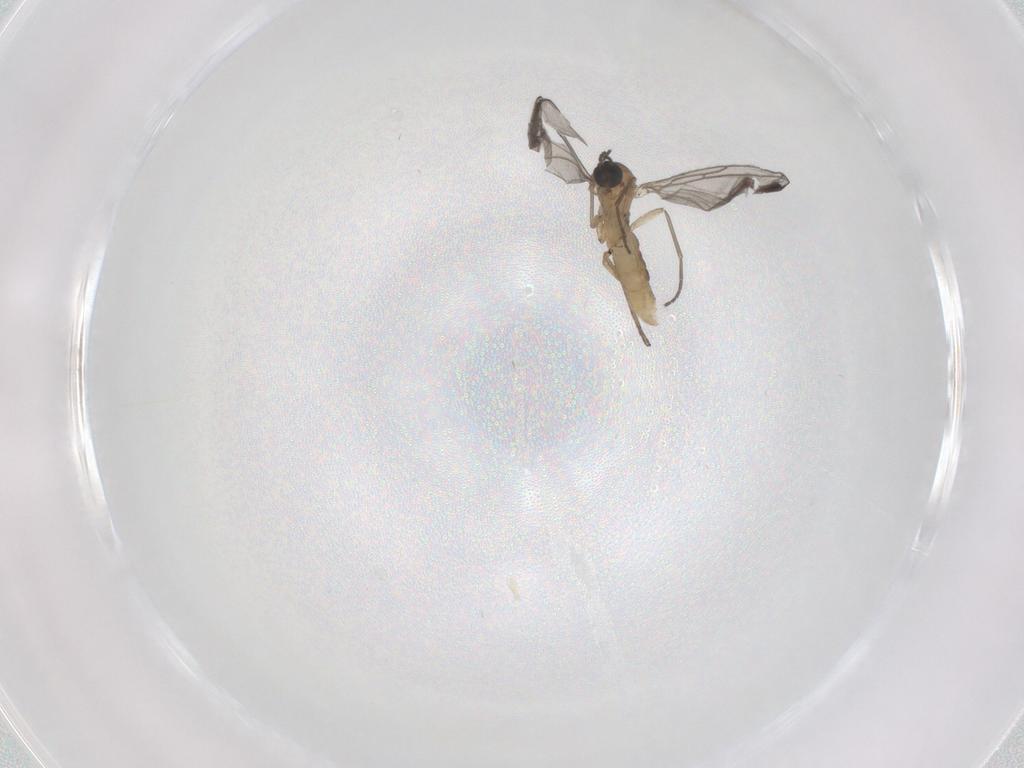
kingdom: Animalia
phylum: Arthropoda
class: Insecta
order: Diptera
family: Sciaridae
